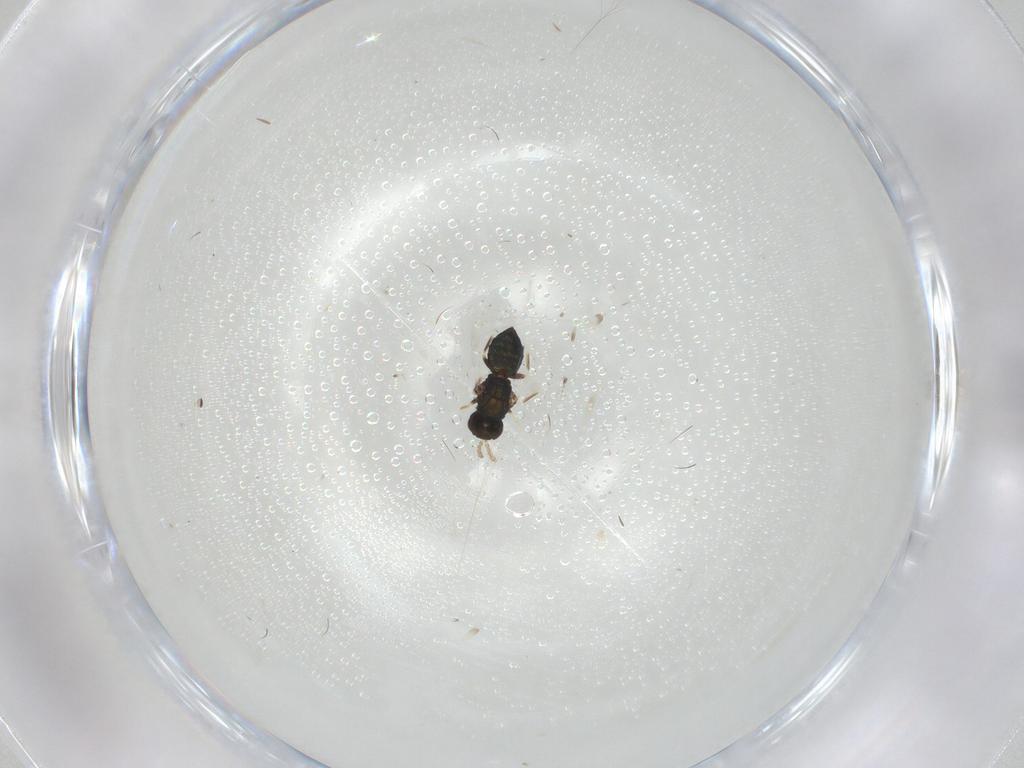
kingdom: Animalia
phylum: Arthropoda
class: Insecta
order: Hymenoptera
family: Eulophidae
